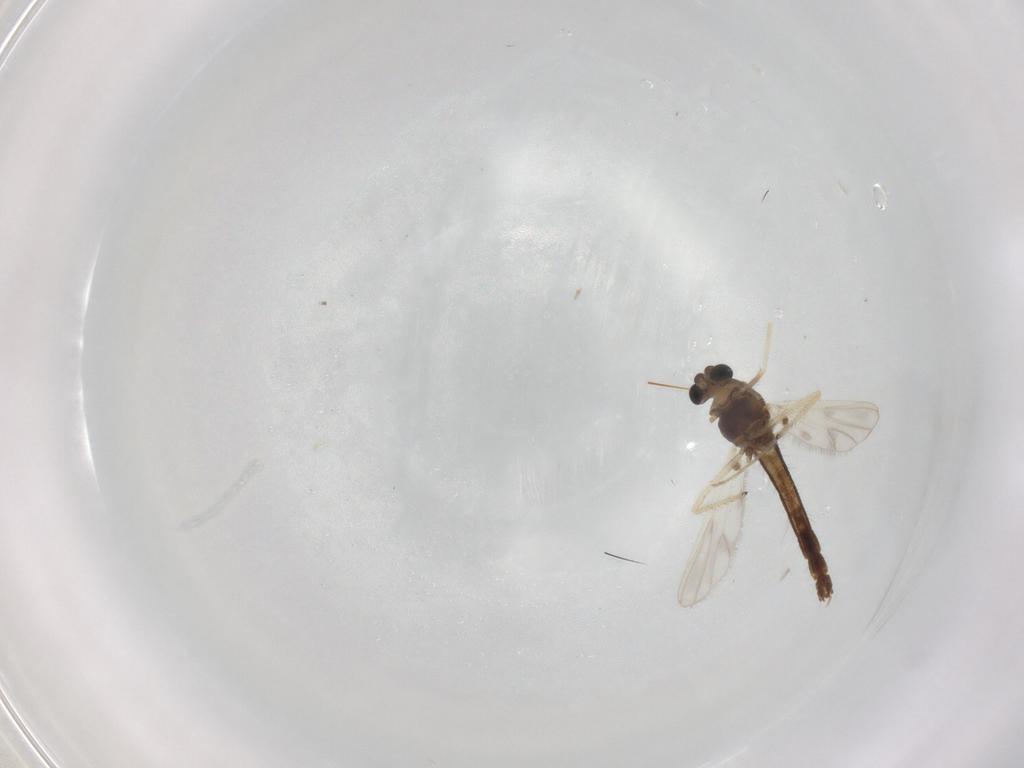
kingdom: Animalia
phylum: Arthropoda
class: Insecta
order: Diptera
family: Chironomidae
